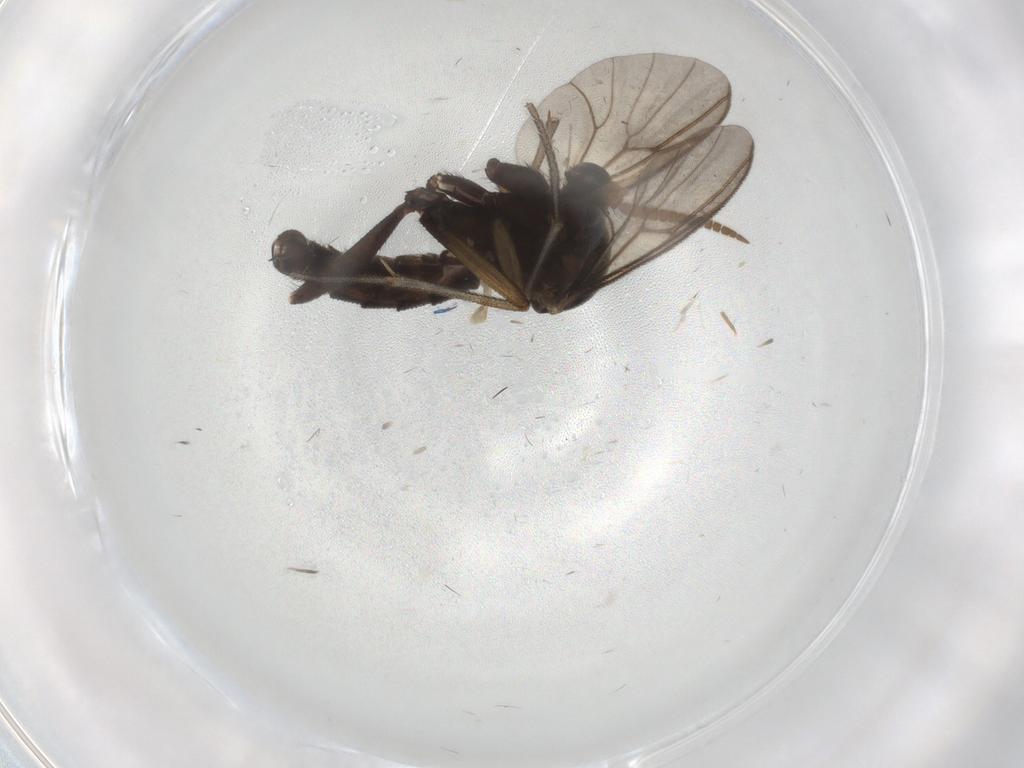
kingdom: Animalia
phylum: Arthropoda
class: Insecta
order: Diptera
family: Mycetophilidae
